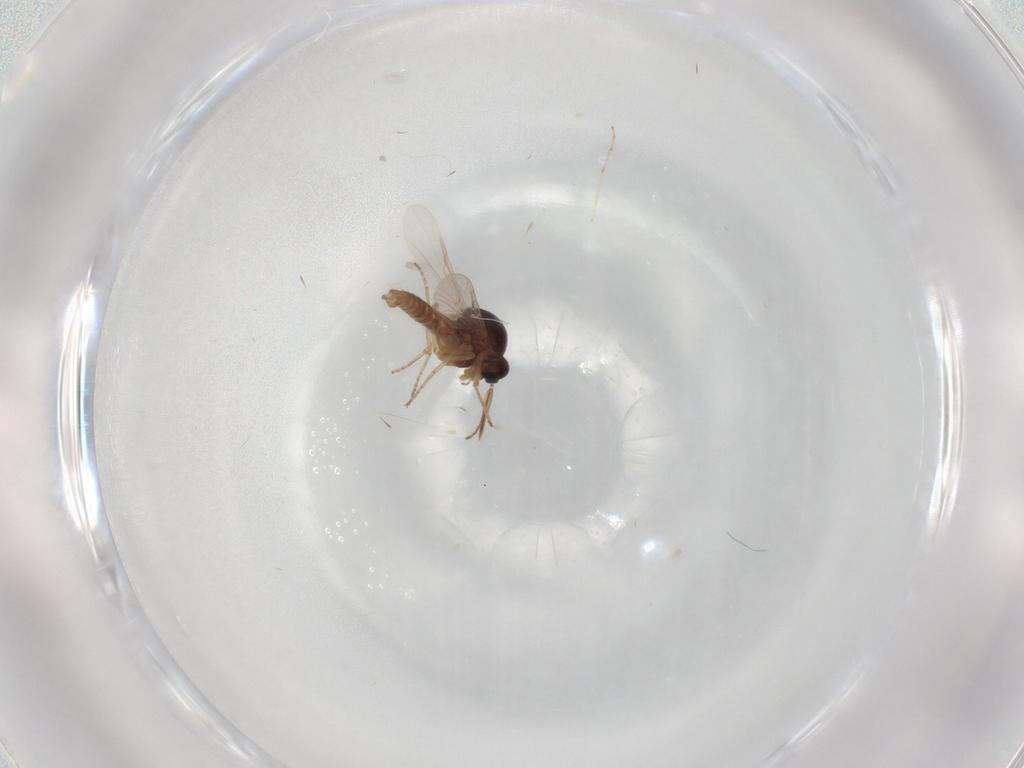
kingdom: Animalia
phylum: Arthropoda
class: Insecta
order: Diptera
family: Ceratopogonidae
